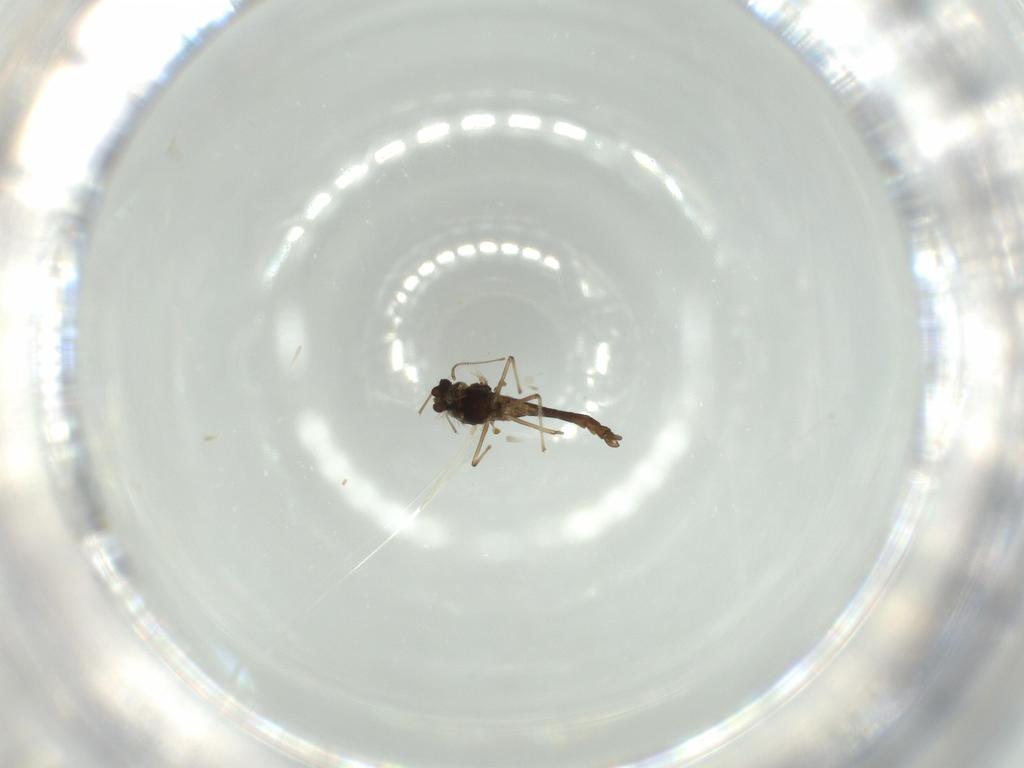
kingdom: Animalia
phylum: Arthropoda
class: Insecta
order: Diptera
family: Chironomidae
